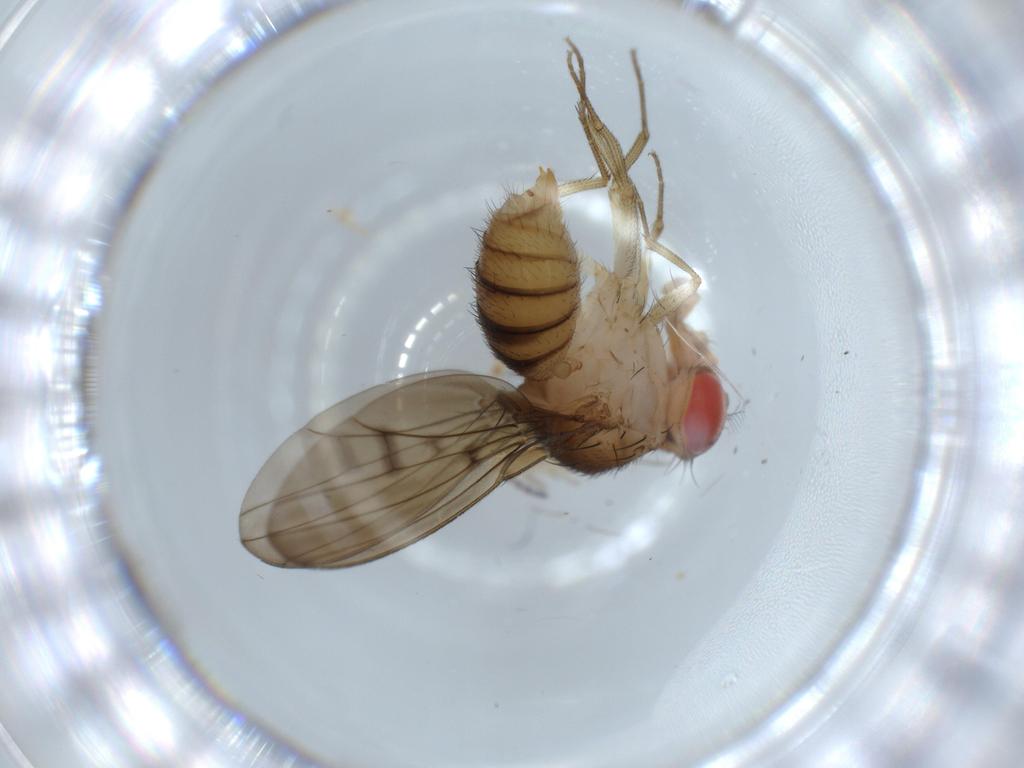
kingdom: Animalia
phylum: Arthropoda
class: Insecta
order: Diptera
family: Drosophilidae
